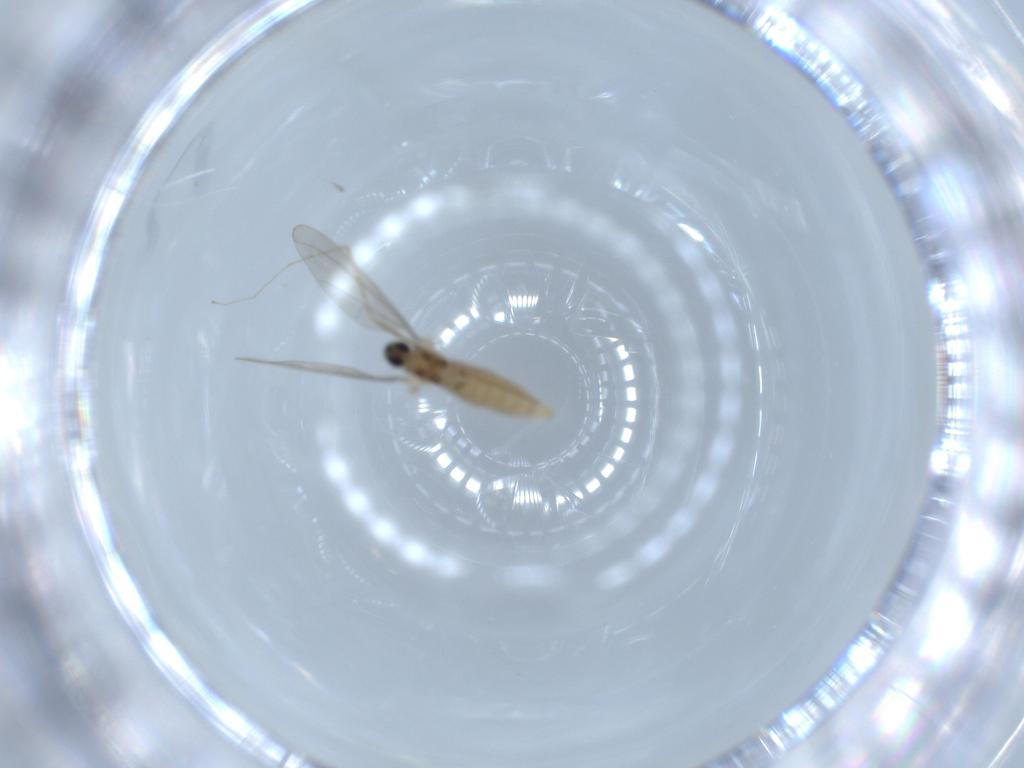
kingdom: Animalia
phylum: Arthropoda
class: Insecta
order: Diptera
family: Cecidomyiidae
